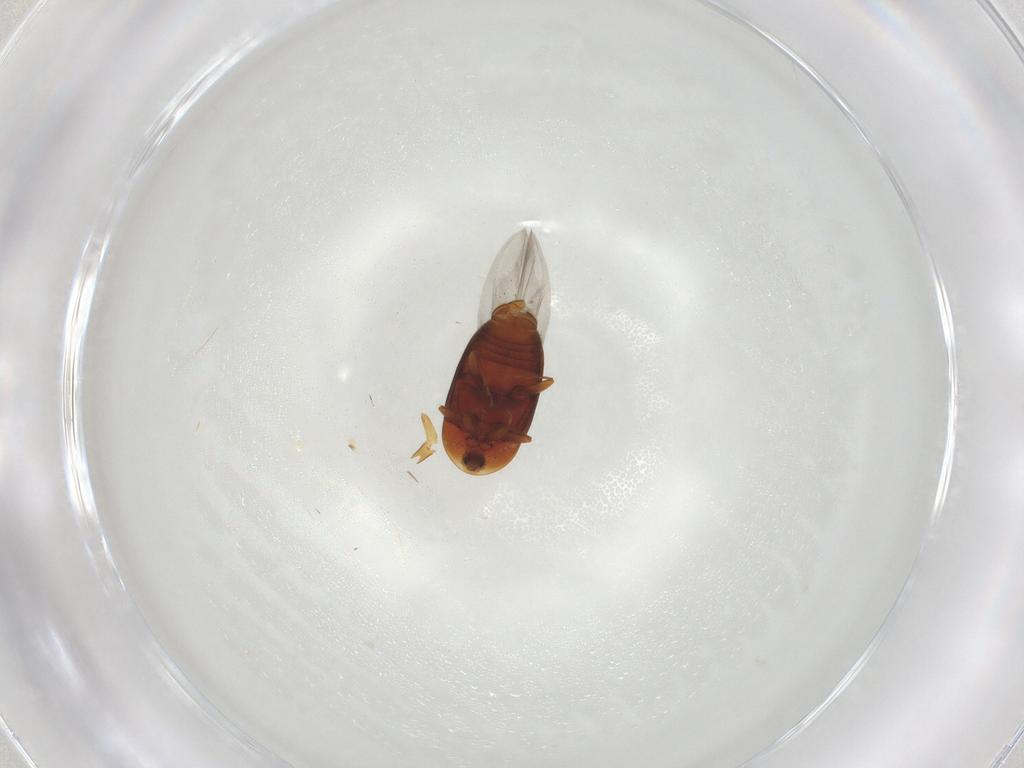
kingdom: Animalia
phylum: Arthropoda
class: Insecta
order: Coleoptera
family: Corylophidae
